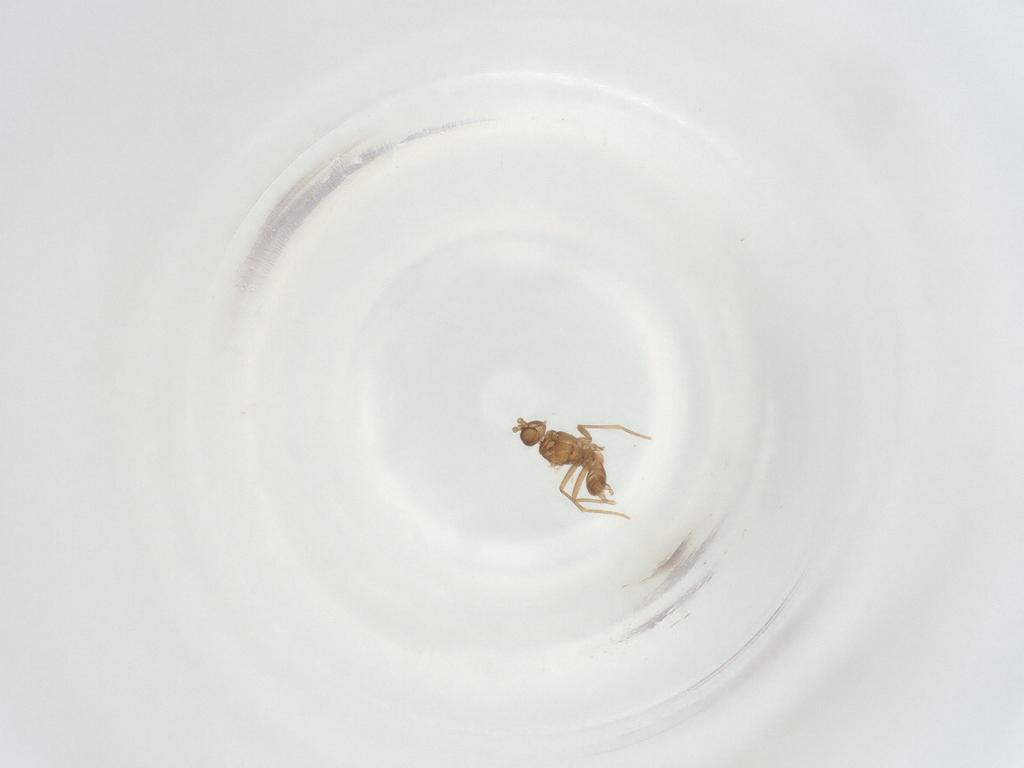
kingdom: Animalia
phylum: Arthropoda
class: Insecta
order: Diptera
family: Sciaridae
